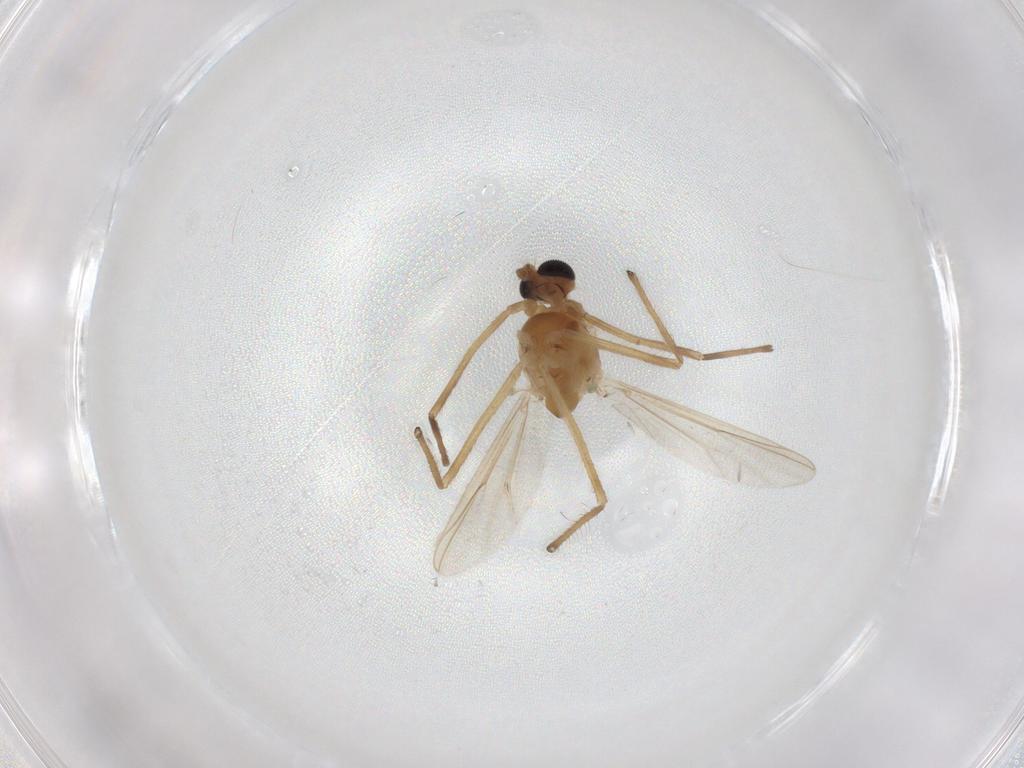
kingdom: Animalia
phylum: Arthropoda
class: Insecta
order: Diptera
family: Chironomidae
